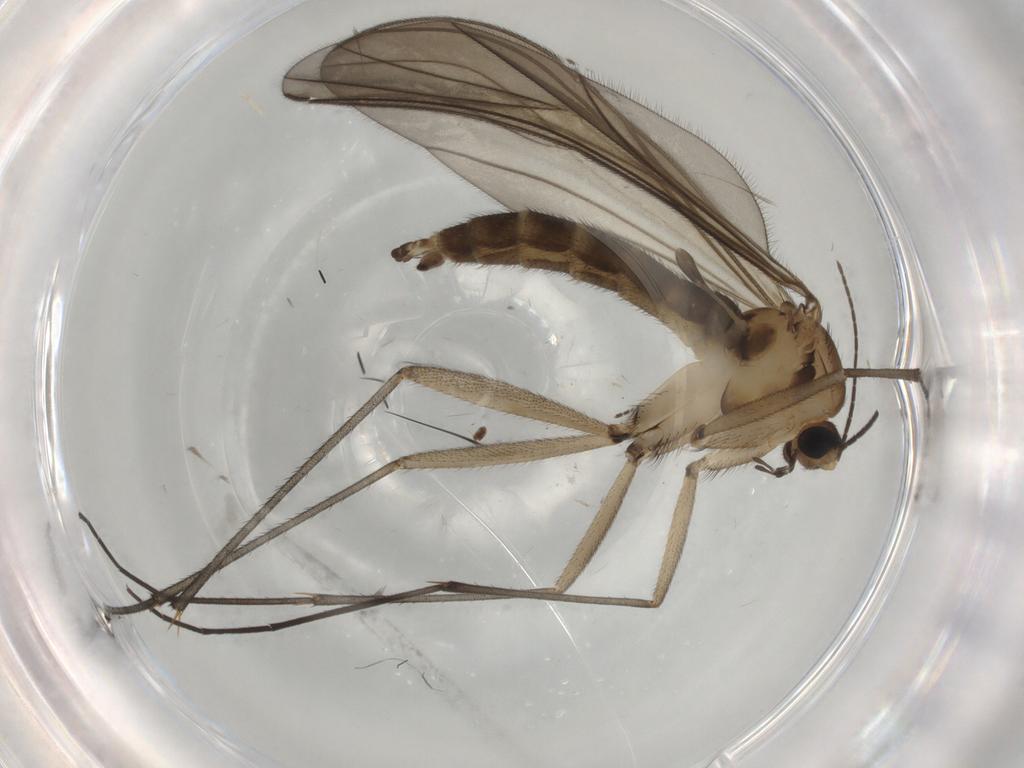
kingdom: Animalia
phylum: Arthropoda
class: Insecta
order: Diptera
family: Sciaridae
